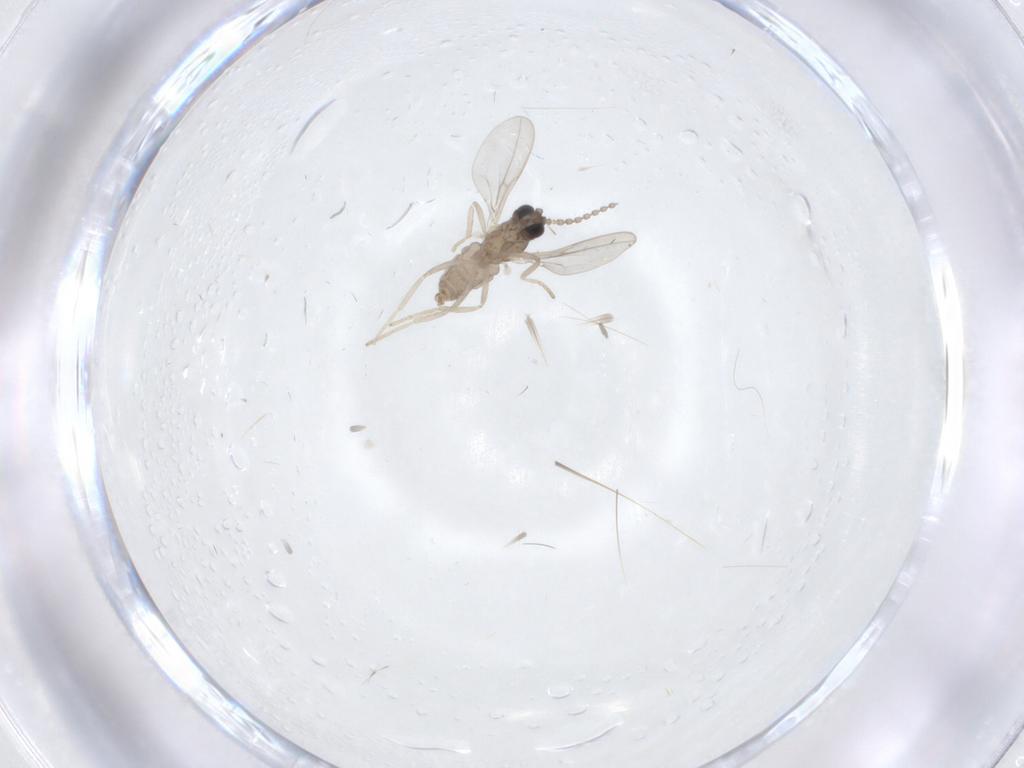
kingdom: Animalia
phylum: Arthropoda
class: Insecta
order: Diptera
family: Cecidomyiidae
